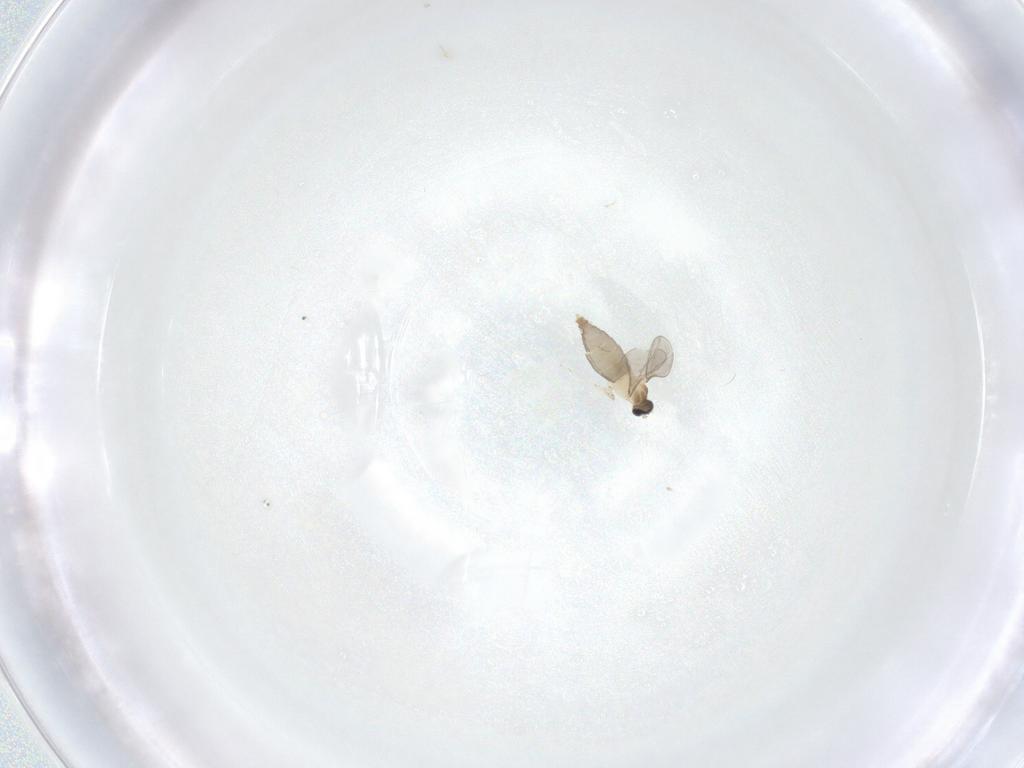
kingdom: Animalia
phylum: Arthropoda
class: Insecta
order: Diptera
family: Cecidomyiidae
